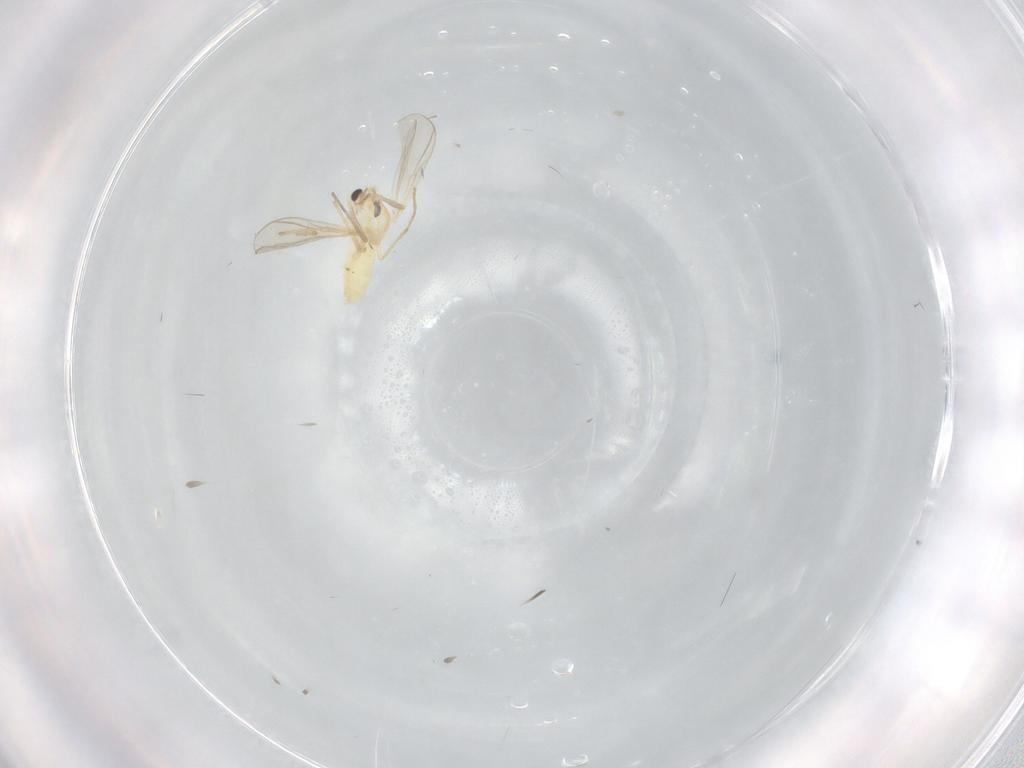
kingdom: Animalia
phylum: Arthropoda
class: Insecta
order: Diptera
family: Chironomidae
